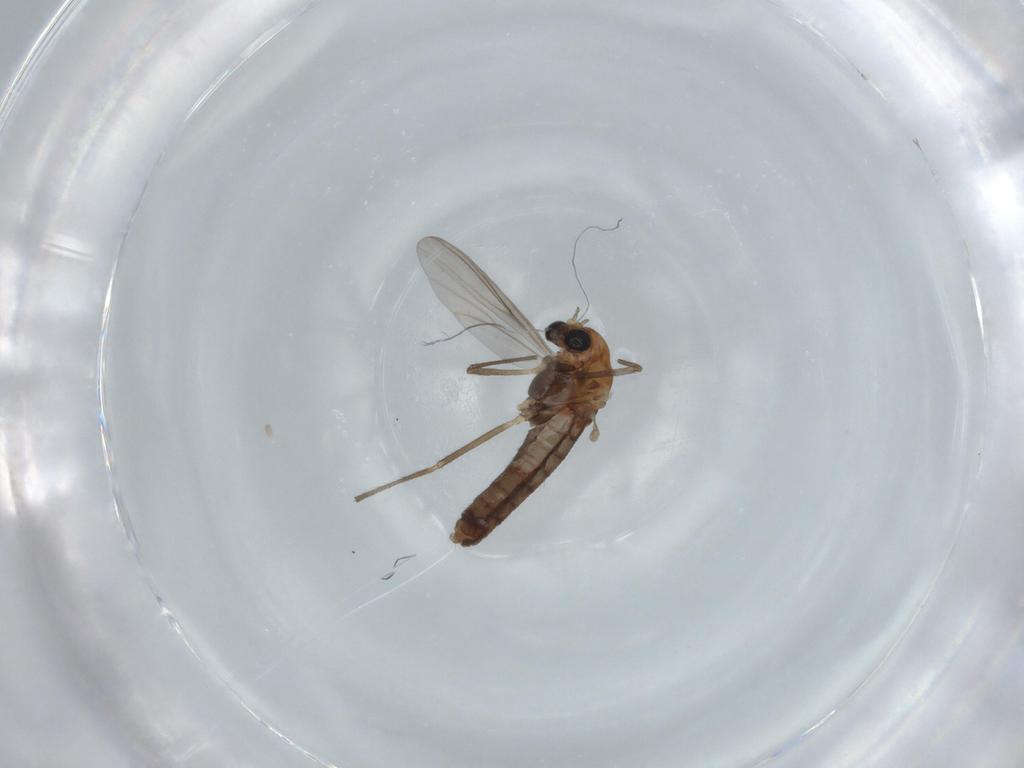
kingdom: Animalia
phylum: Arthropoda
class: Insecta
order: Diptera
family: Chironomidae
